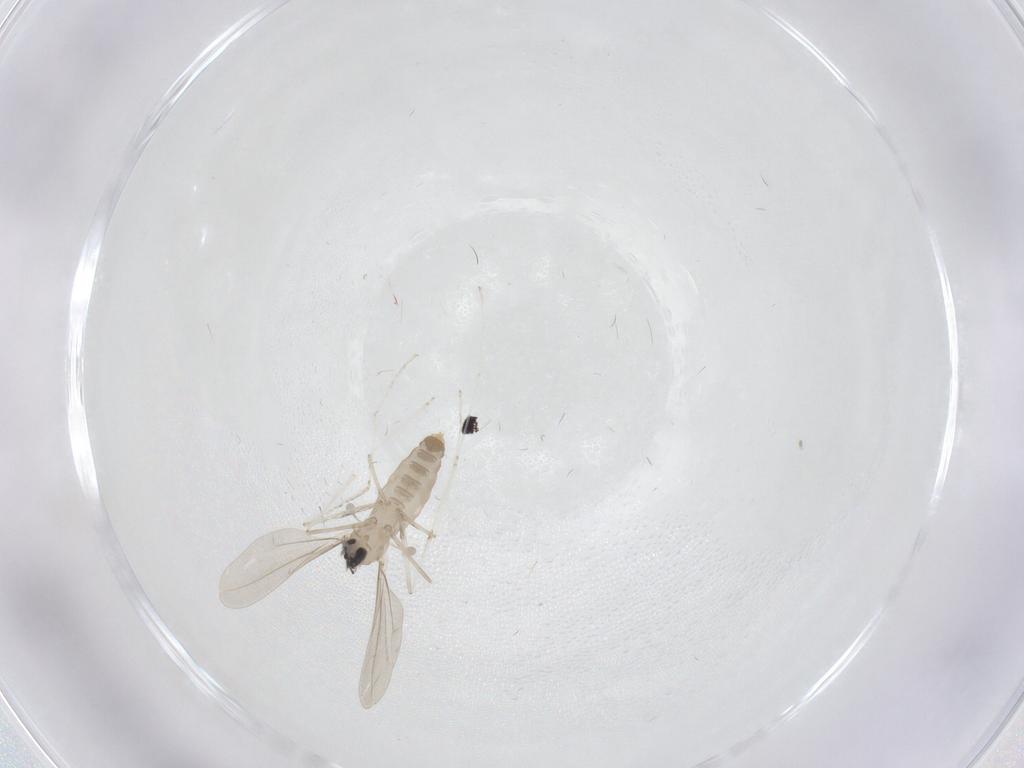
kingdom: Animalia
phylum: Arthropoda
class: Insecta
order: Diptera
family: Cecidomyiidae
